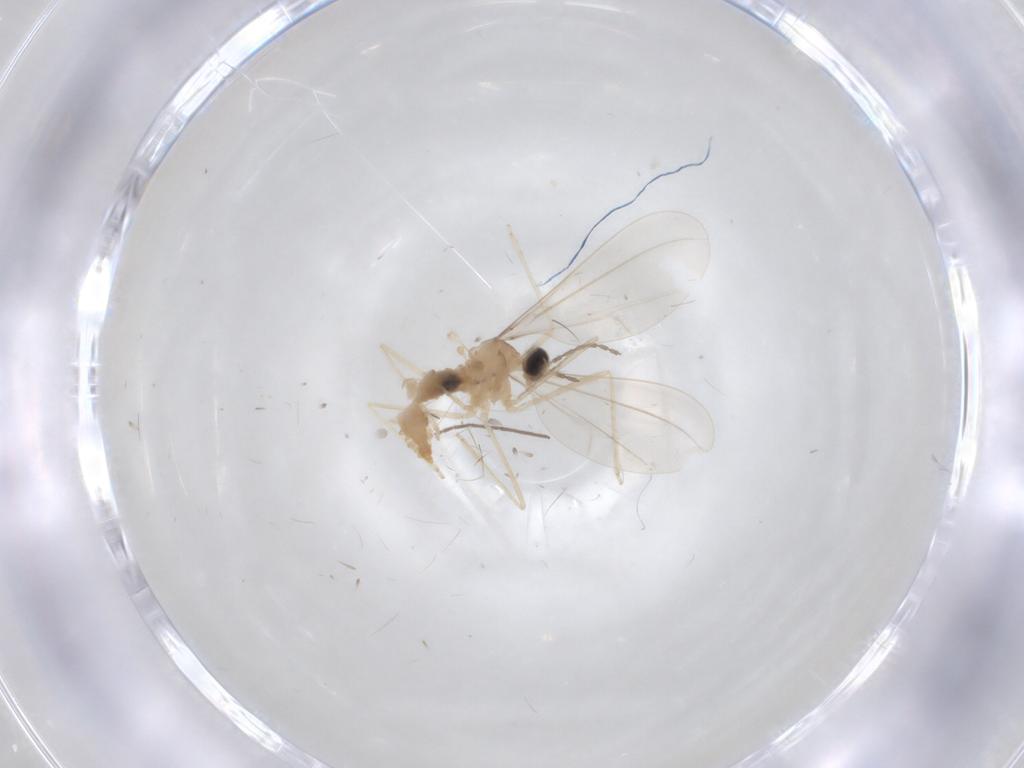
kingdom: Animalia
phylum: Arthropoda
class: Insecta
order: Diptera
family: Cecidomyiidae
